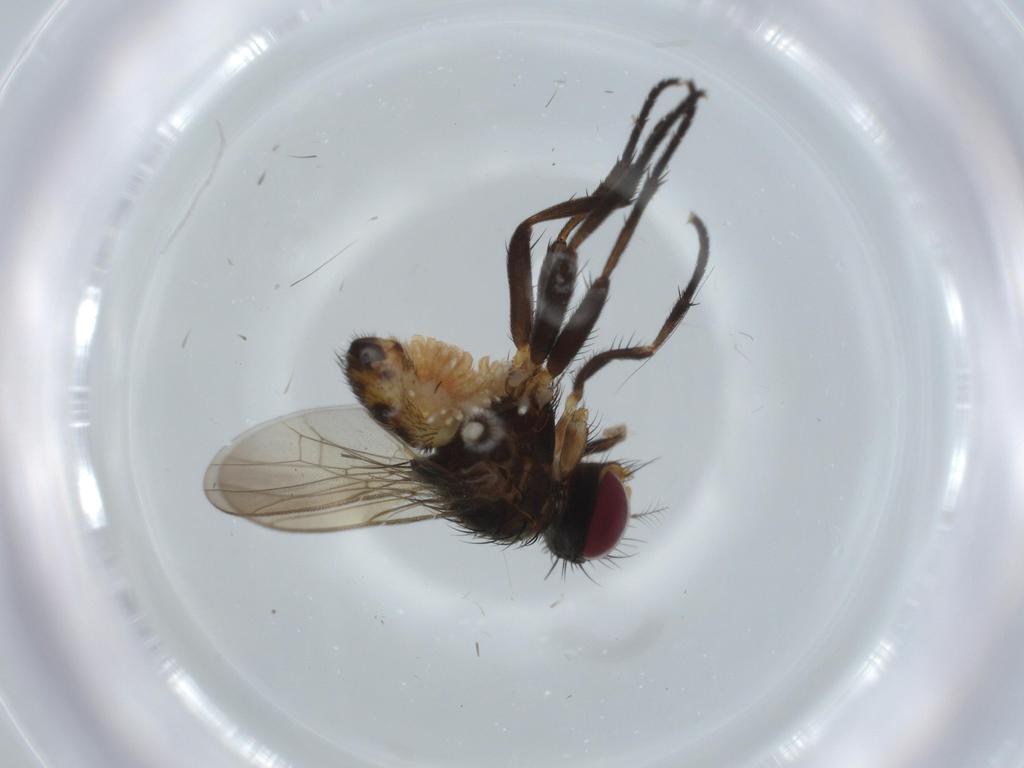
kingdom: Animalia
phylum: Arthropoda
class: Insecta
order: Diptera
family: Anthomyiidae
